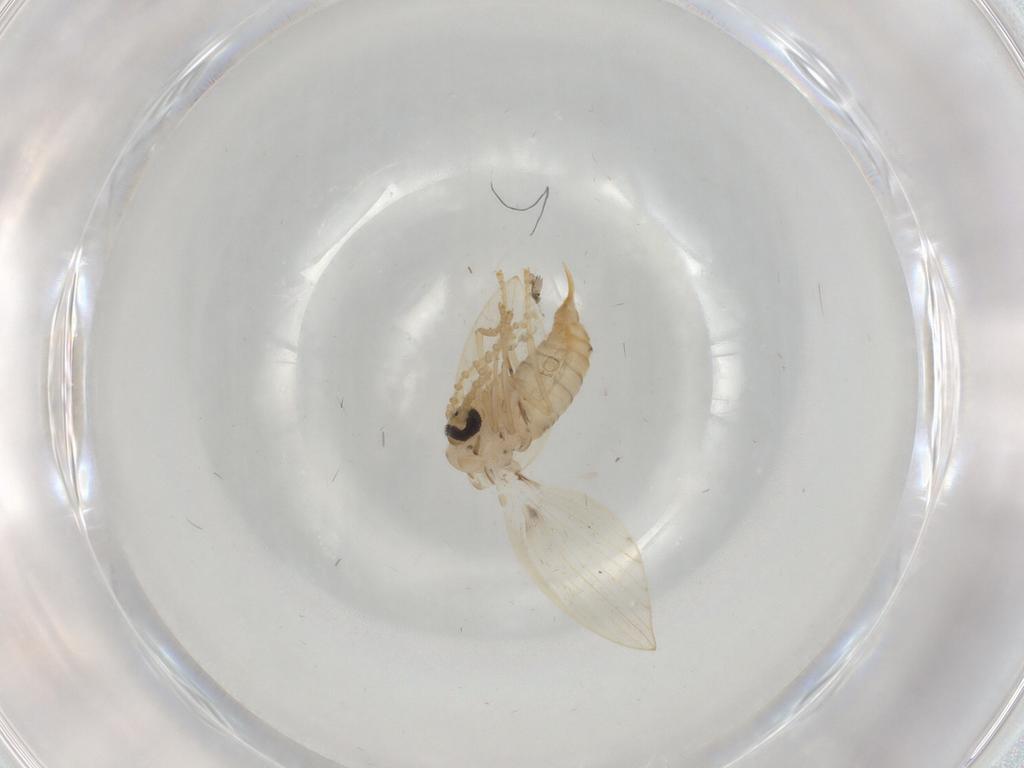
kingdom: Animalia
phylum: Arthropoda
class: Insecta
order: Diptera
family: Psychodidae
